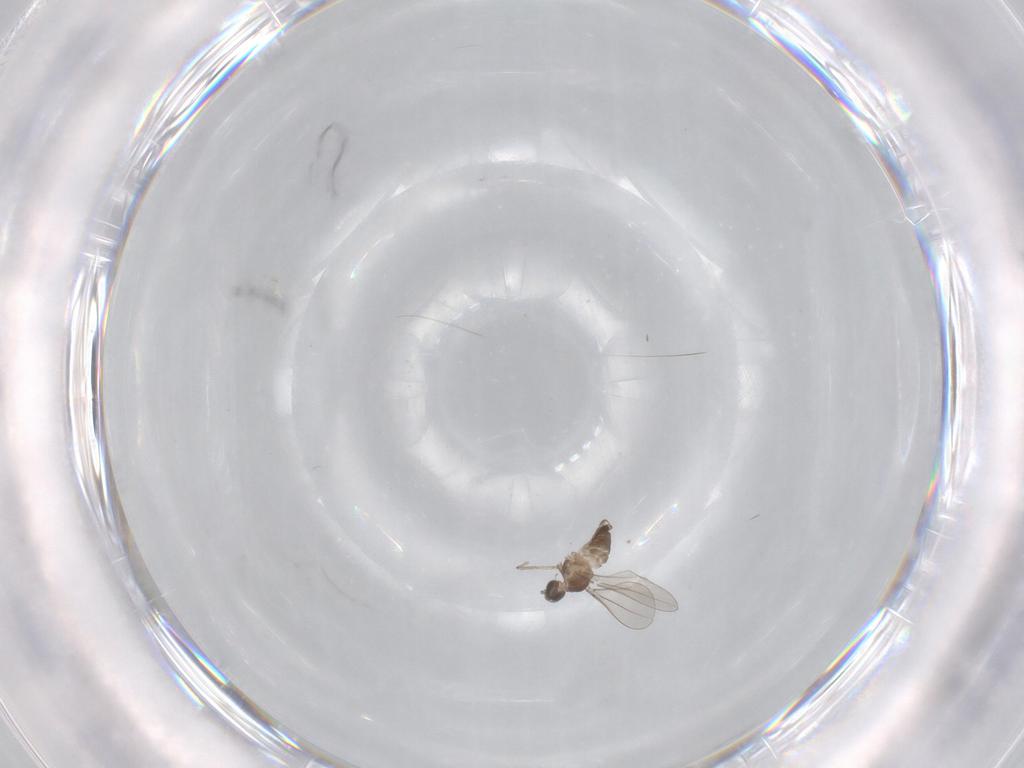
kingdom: Animalia
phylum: Arthropoda
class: Insecta
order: Diptera
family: Cecidomyiidae
